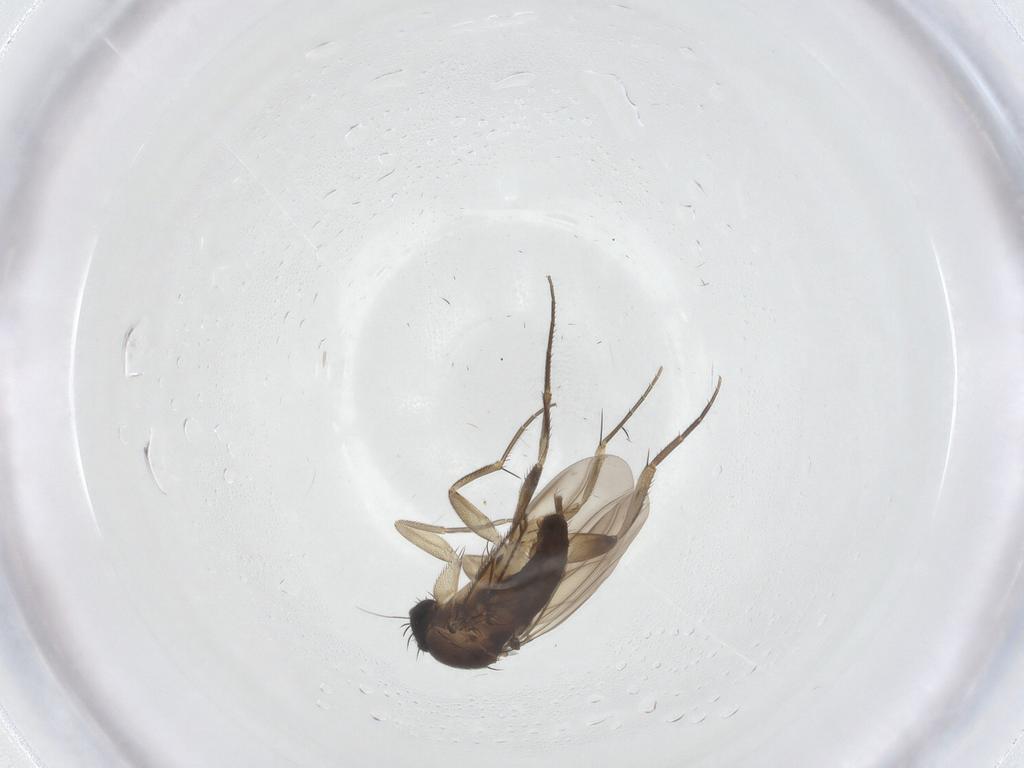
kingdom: Animalia
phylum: Arthropoda
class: Insecta
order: Diptera
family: Phoridae
